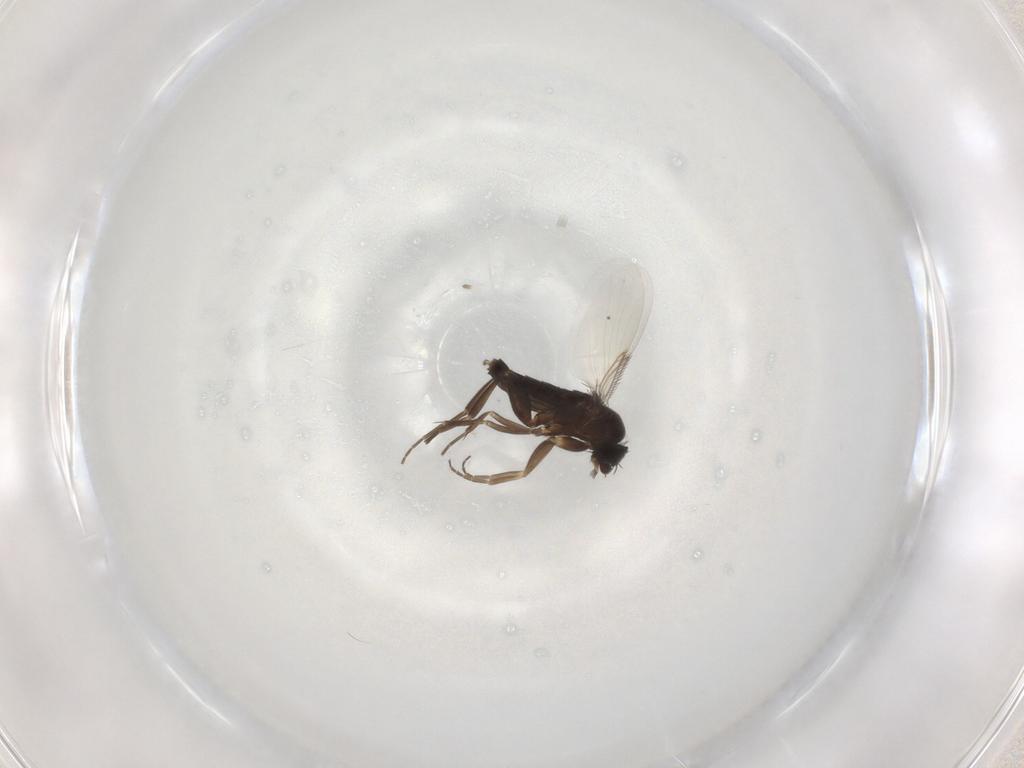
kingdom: Animalia
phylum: Arthropoda
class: Insecta
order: Diptera
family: Phoridae
